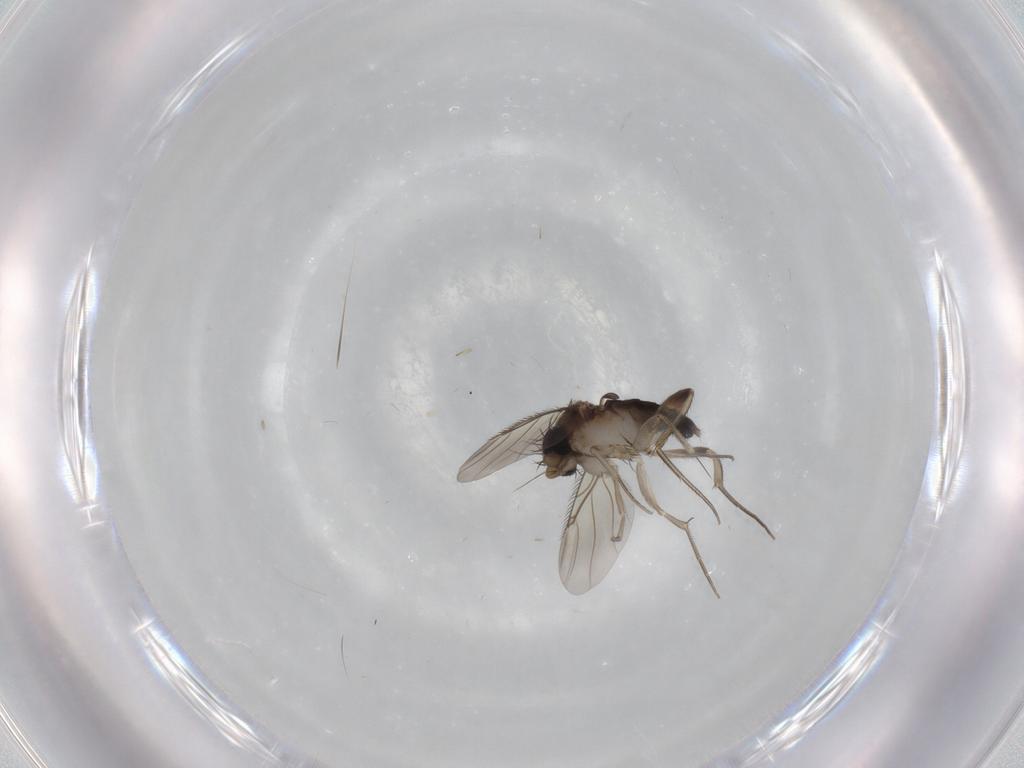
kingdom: Animalia
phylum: Arthropoda
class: Insecta
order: Diptera
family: Phoridae
